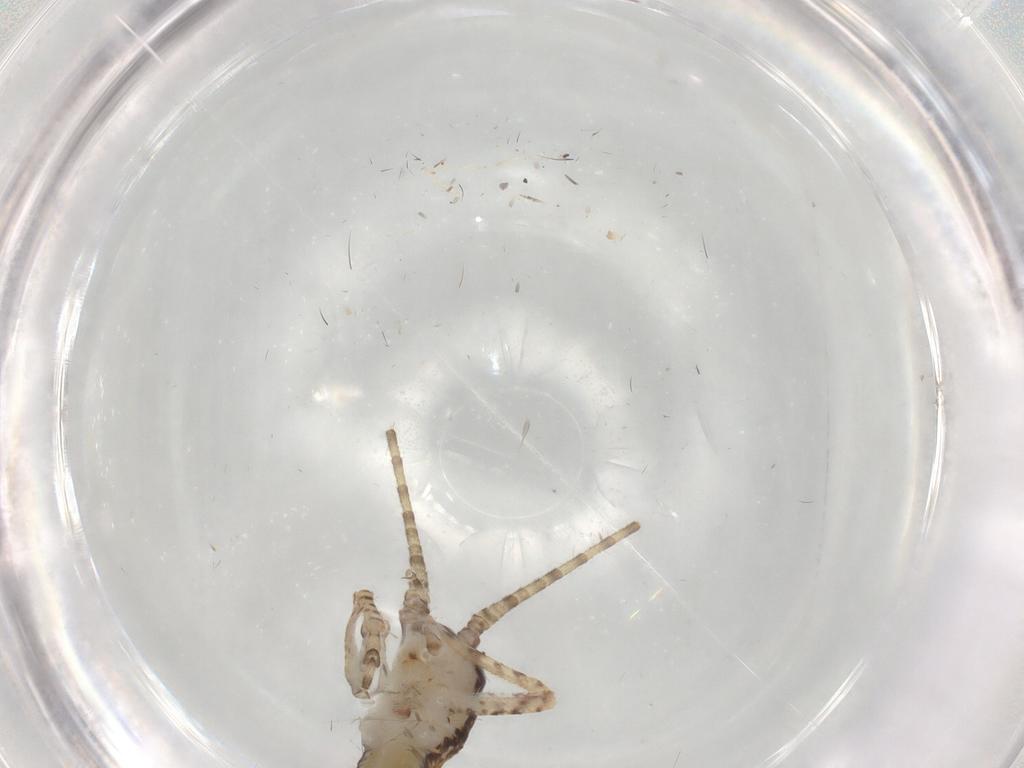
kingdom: Animalia
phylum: Arthropoda
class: Insecta
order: Orthoptera
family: Gryllidae
